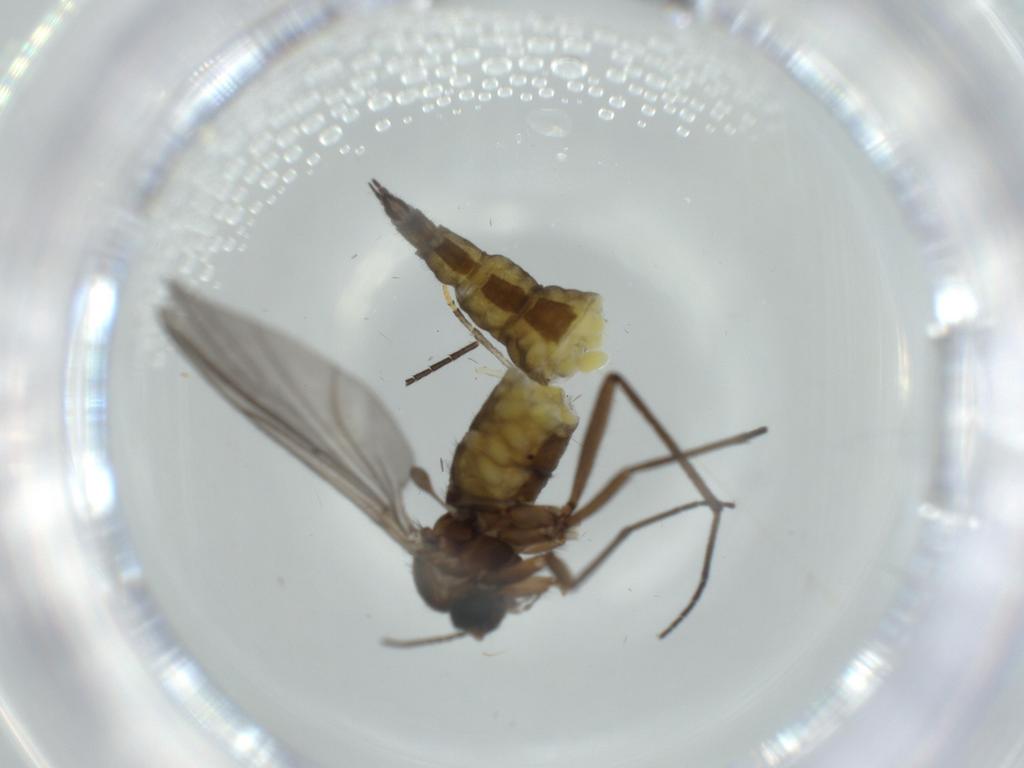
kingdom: Animalia
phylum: Arthropoda
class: Insecta
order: Diptera
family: Sciaridae
